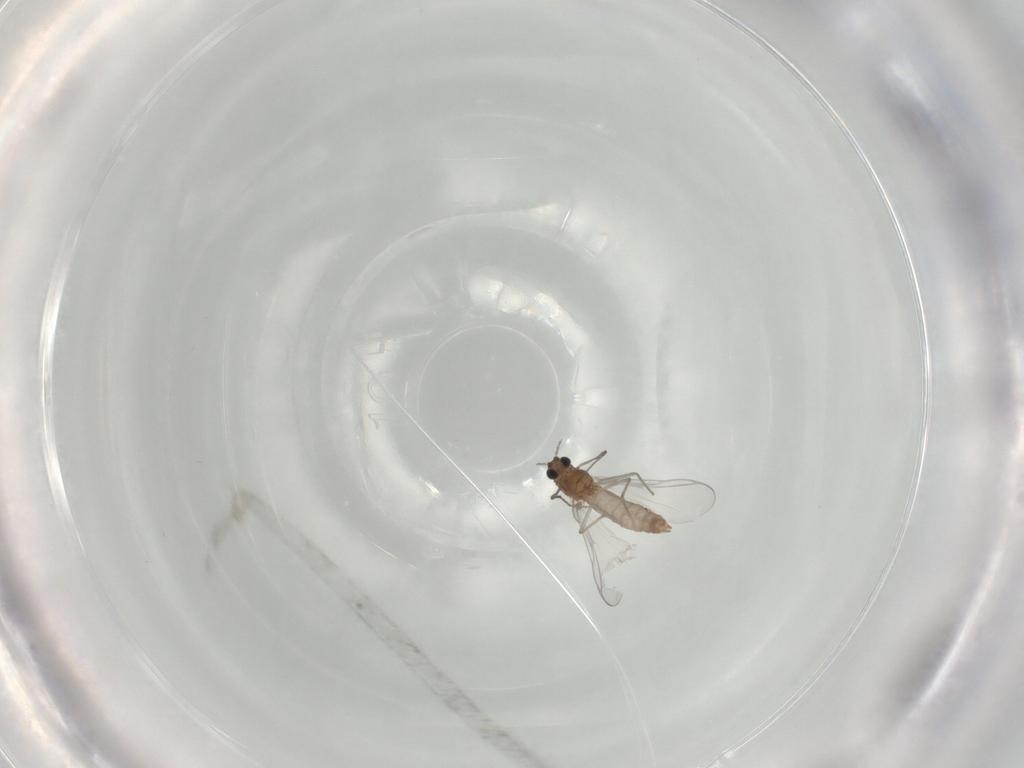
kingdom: Animalia
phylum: Arthropoda
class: Insecta
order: Diptera
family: Chironomidae
